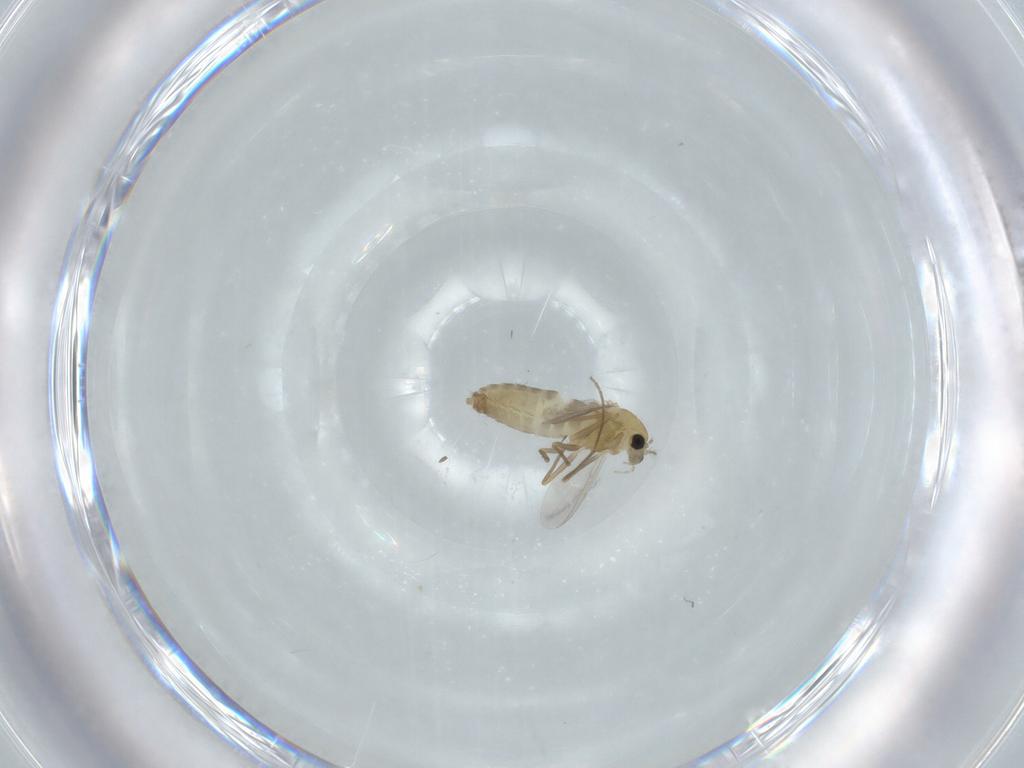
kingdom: Animalia
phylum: Arthropoda
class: Insecta
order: Diptera
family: Chironomidae
